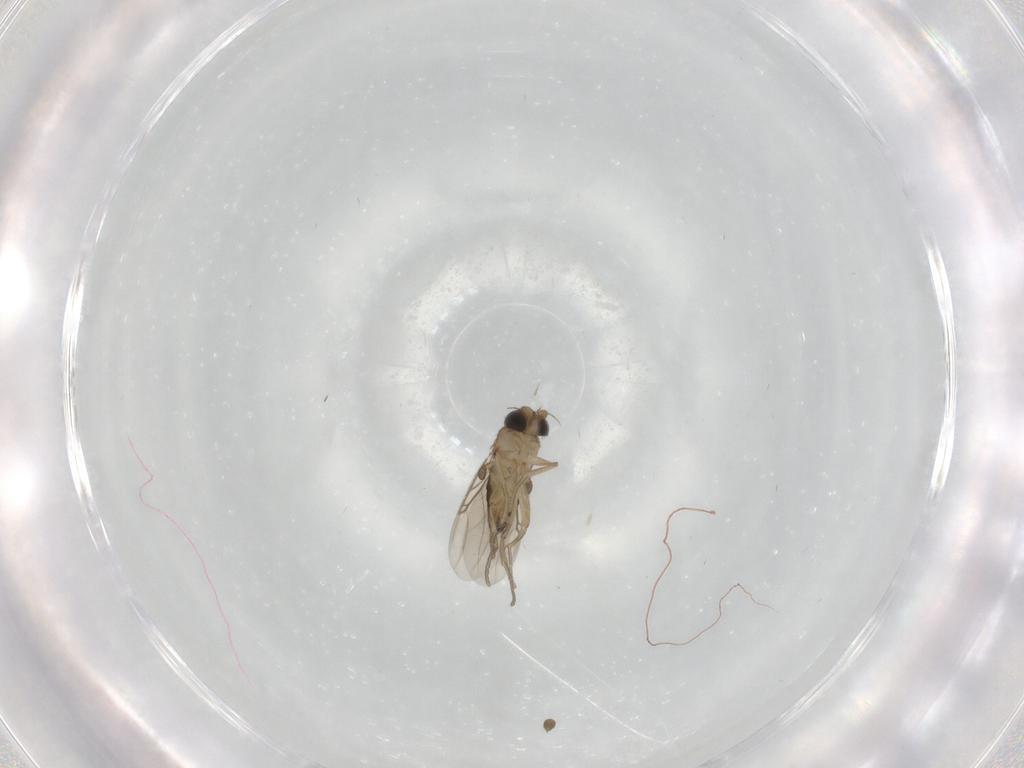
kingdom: Animalia
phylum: Arthropoda
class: Insecta
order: Diptera
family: Phoridae
